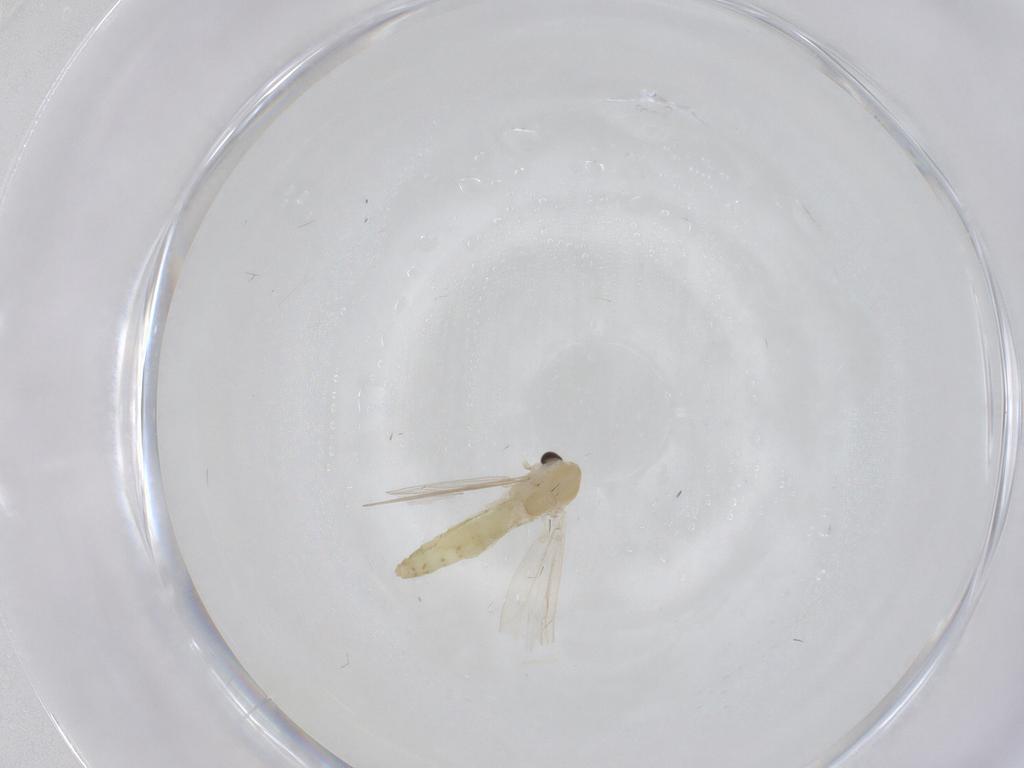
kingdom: Animalia
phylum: Arthropoda
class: Insecta
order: Diptera
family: Chironomidae
